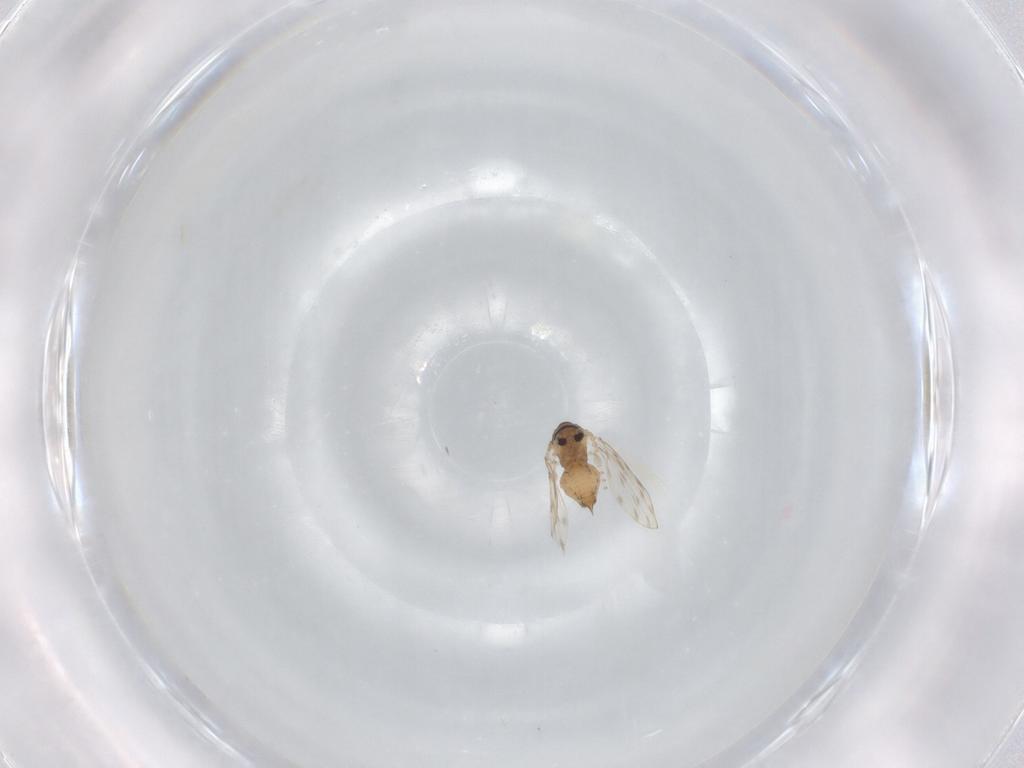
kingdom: Animalia
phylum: Arthropoda
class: Insecta
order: Diptera
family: Psychodidae
